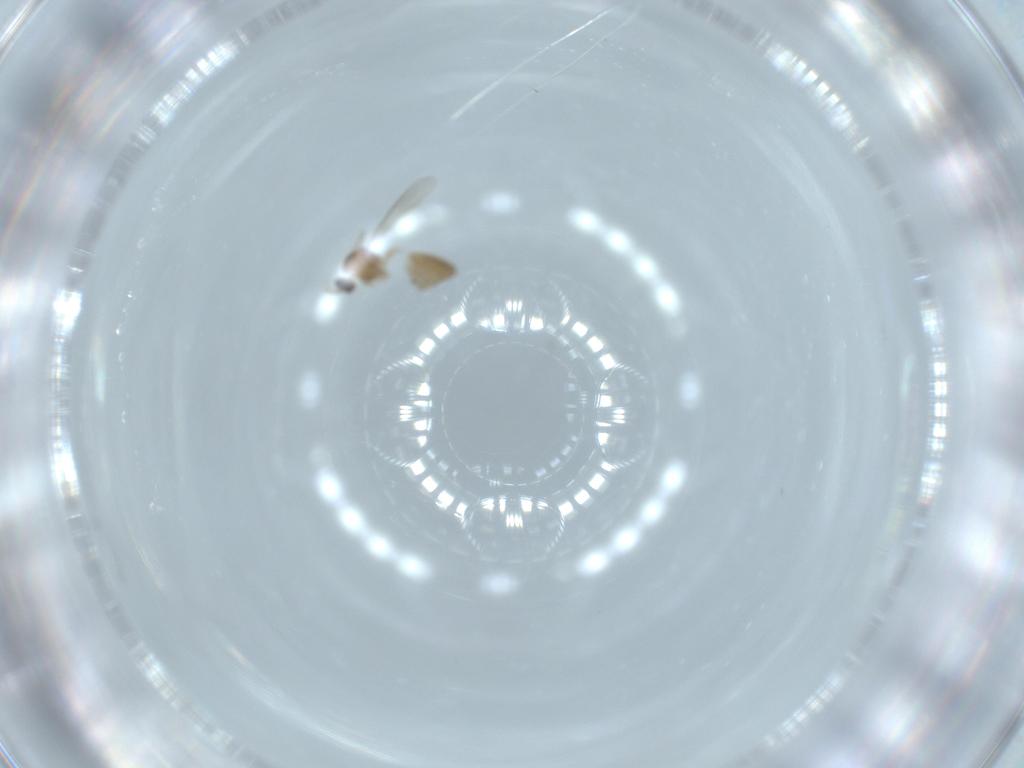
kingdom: Animalia
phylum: Arthropoda
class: Insecta
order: Diptera
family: Cecidomyiidae
